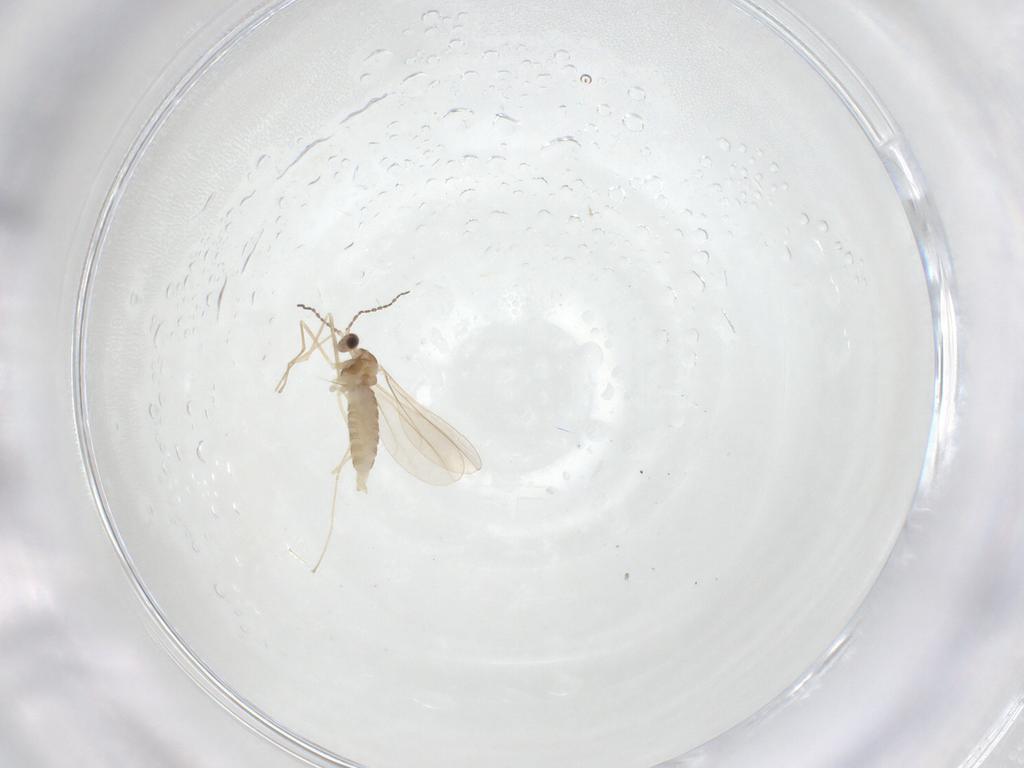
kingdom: Animalia
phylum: Arthropoda
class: Insecta
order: Diptera
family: Cecidomyiidae
